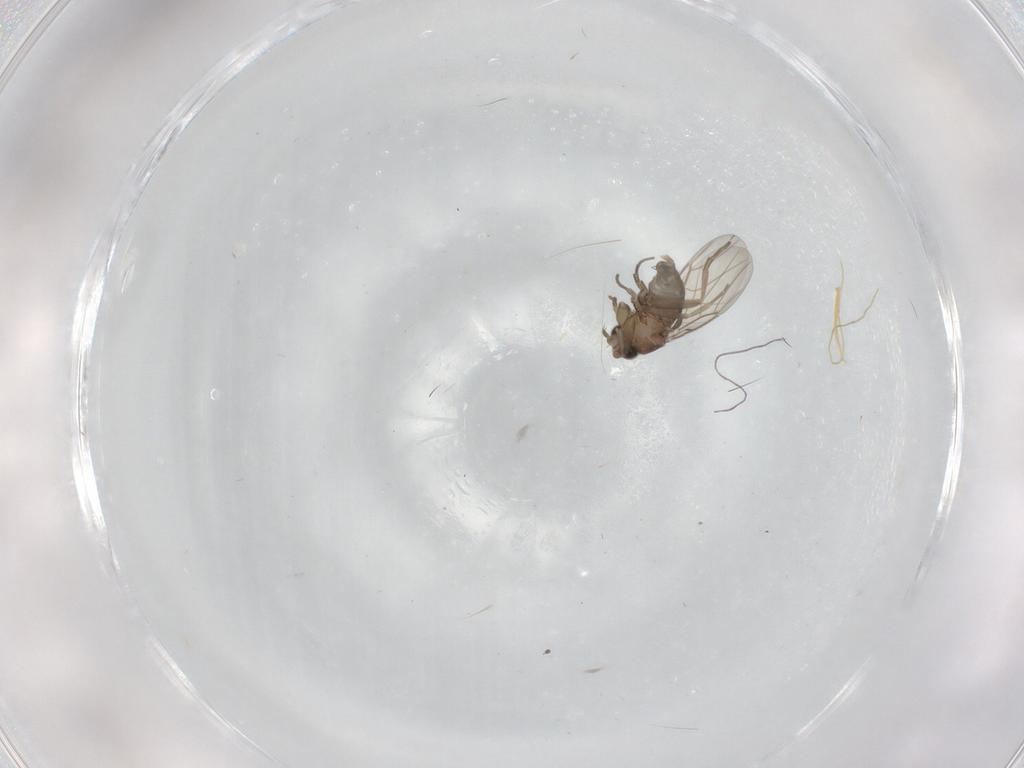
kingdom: Animalia
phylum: Arthropoda
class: Insecta
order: Diptera
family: Phoridae
